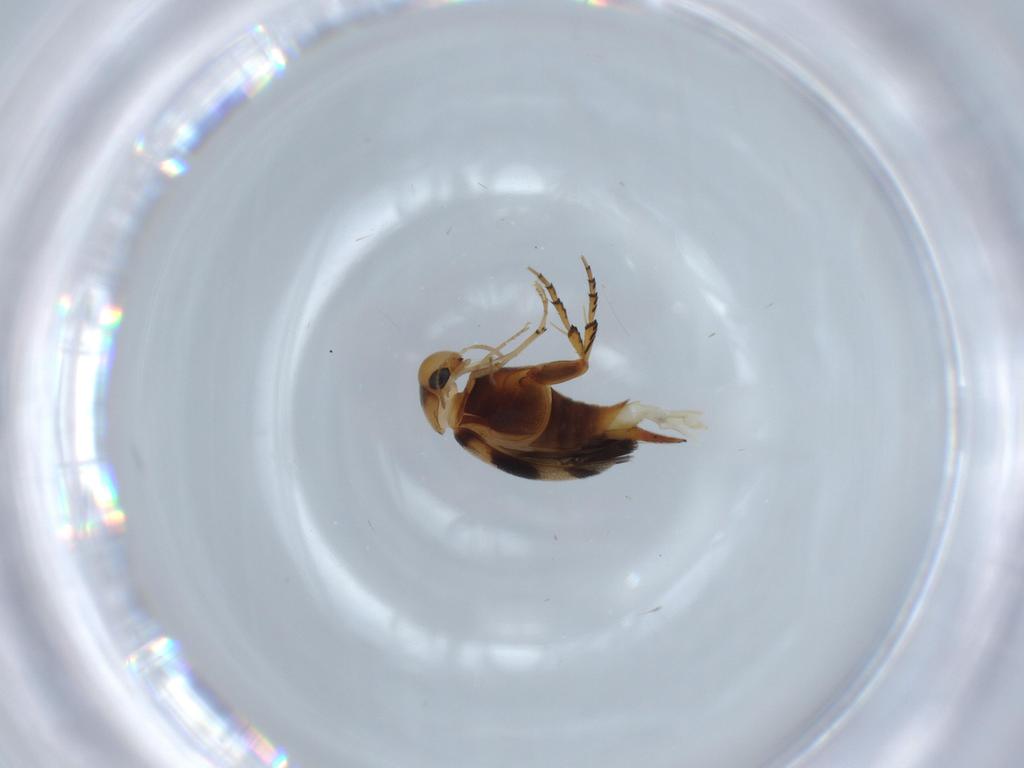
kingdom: Animalia
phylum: Arthropoda
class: Insecta
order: Coleoptera
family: Mordellidae
